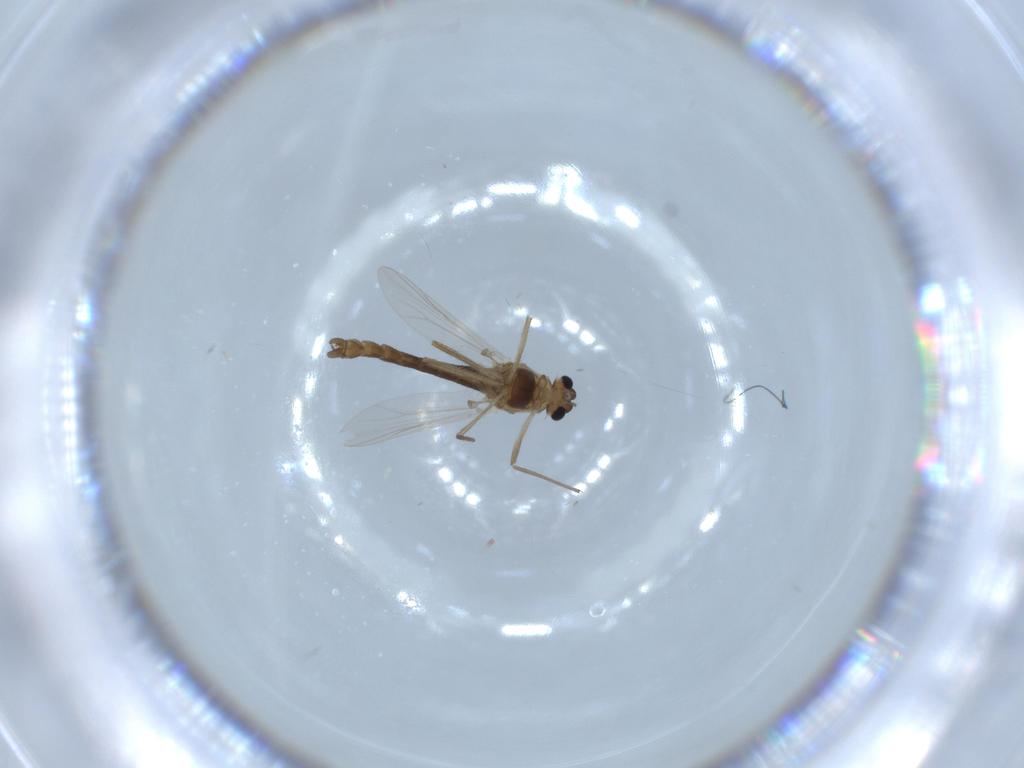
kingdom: Animalia
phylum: Arthropoda
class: Insecta
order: Diptera
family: Chironomidae
